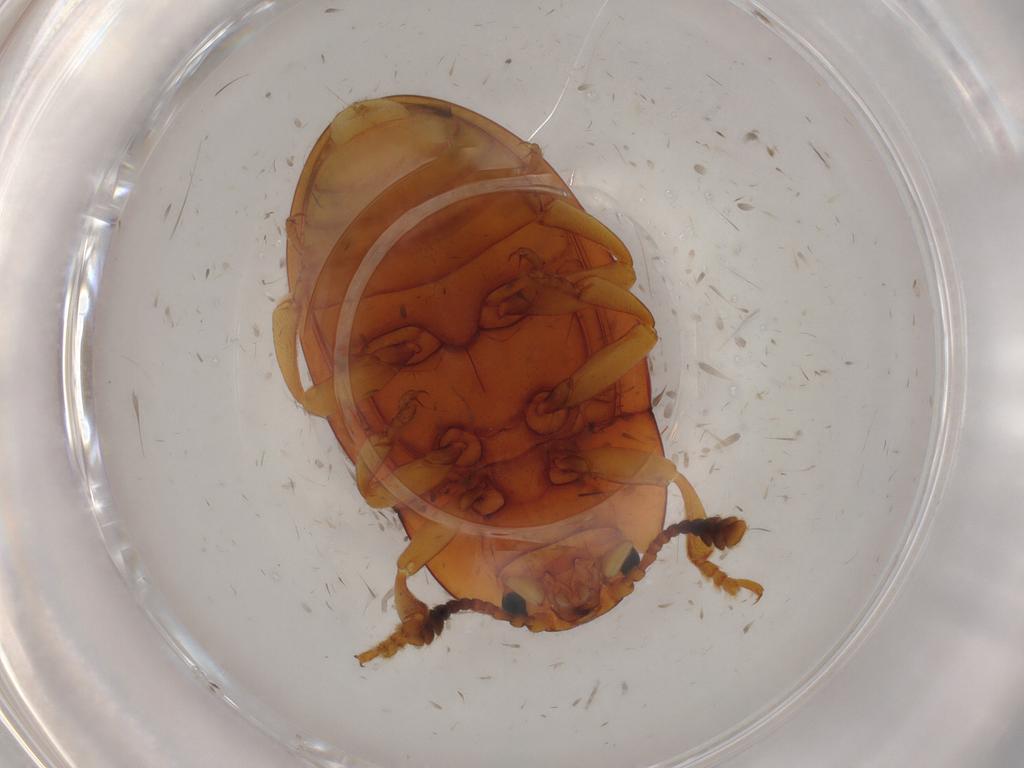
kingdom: Animalia
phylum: Arthropoda
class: Insecta
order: Coleoptera
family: Erotylidae
